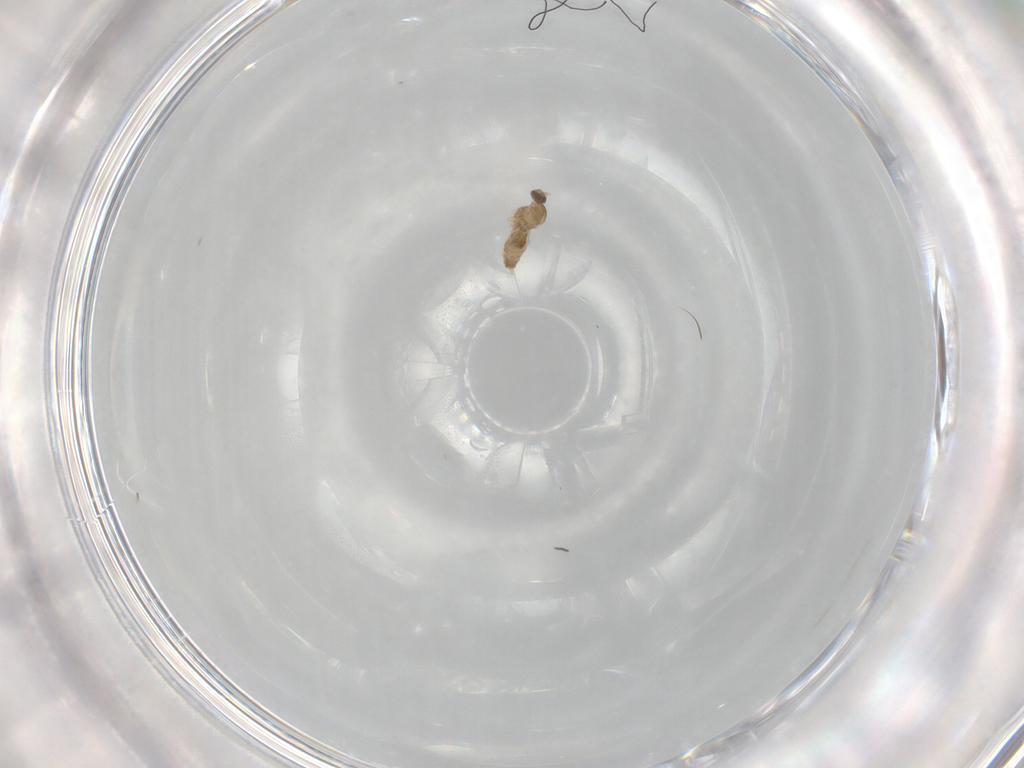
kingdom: Animalia
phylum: Arthropoda
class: Insecta
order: Diptera
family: Cecidomyiidae
